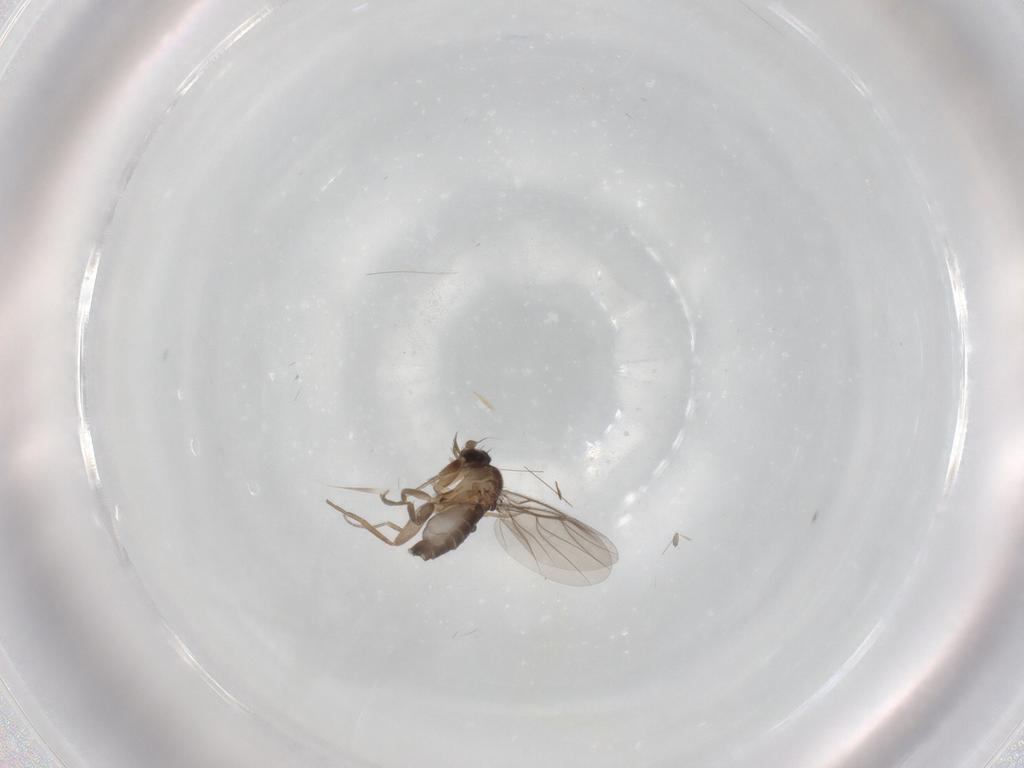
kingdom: Animalia
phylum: Arthropoda
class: Insecta
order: Diptera
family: Phoridae
